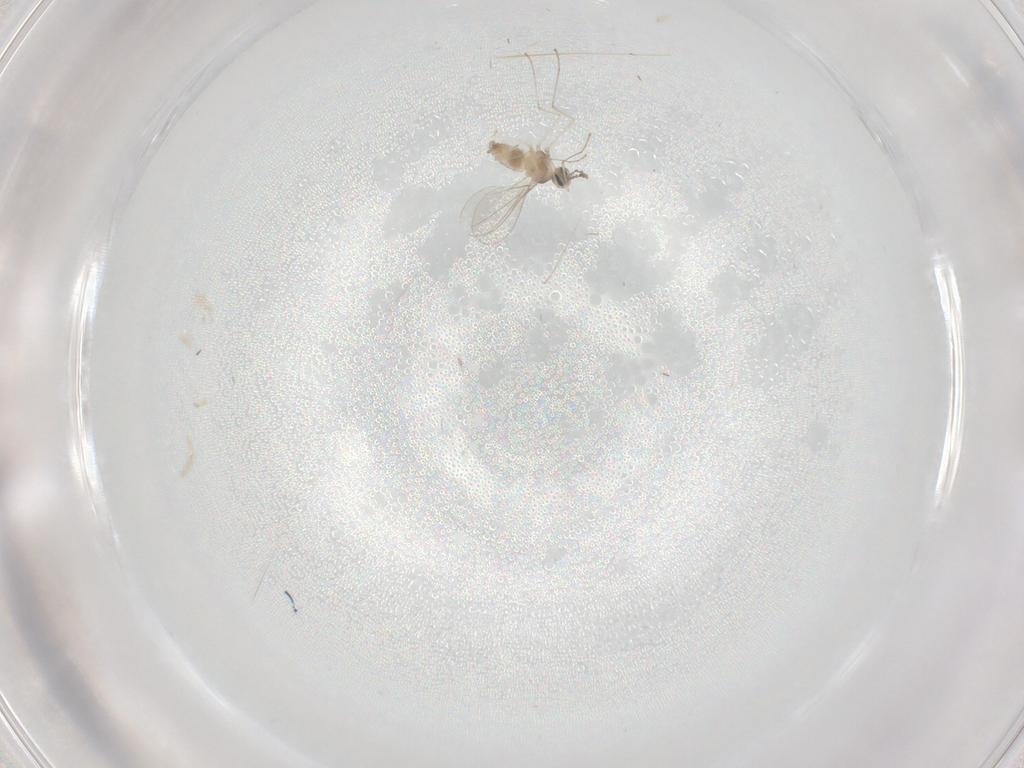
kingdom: Animalia
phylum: Arthropoda
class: Insecta
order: Diptera
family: Cecidomyiidae
